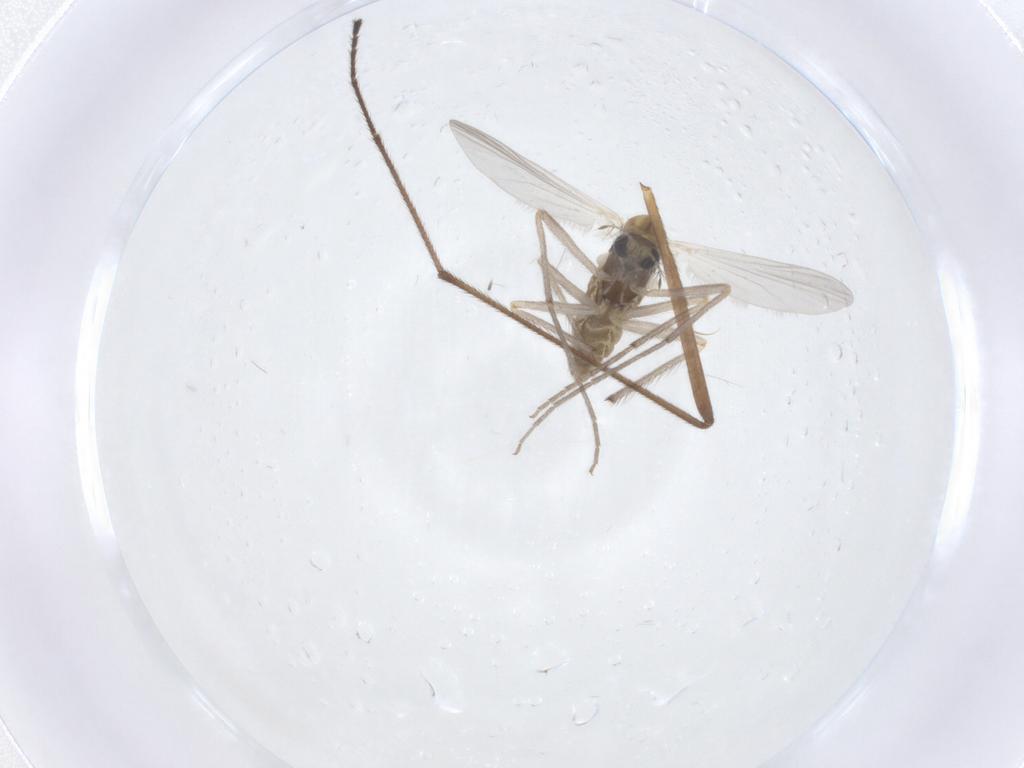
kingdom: Animalia
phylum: Arthropoda
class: Insecta
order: Diptera
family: Chironomidae
